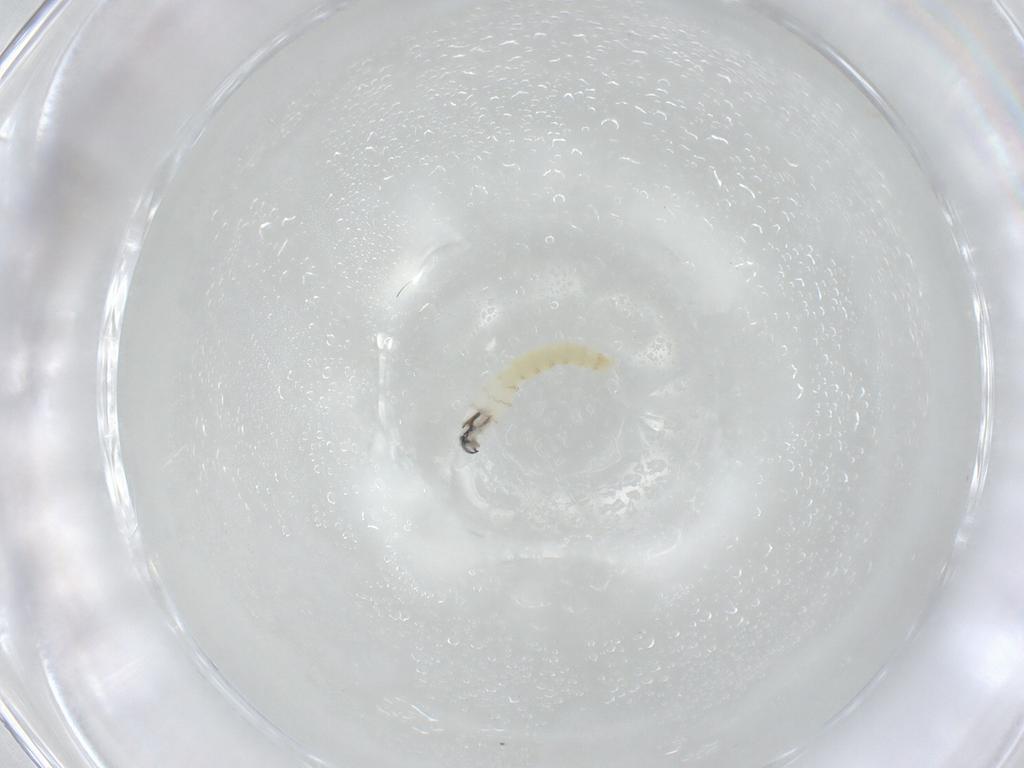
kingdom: Animalia
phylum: Arthropoda
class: Insecta
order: Diptera
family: Sarcophagidae
